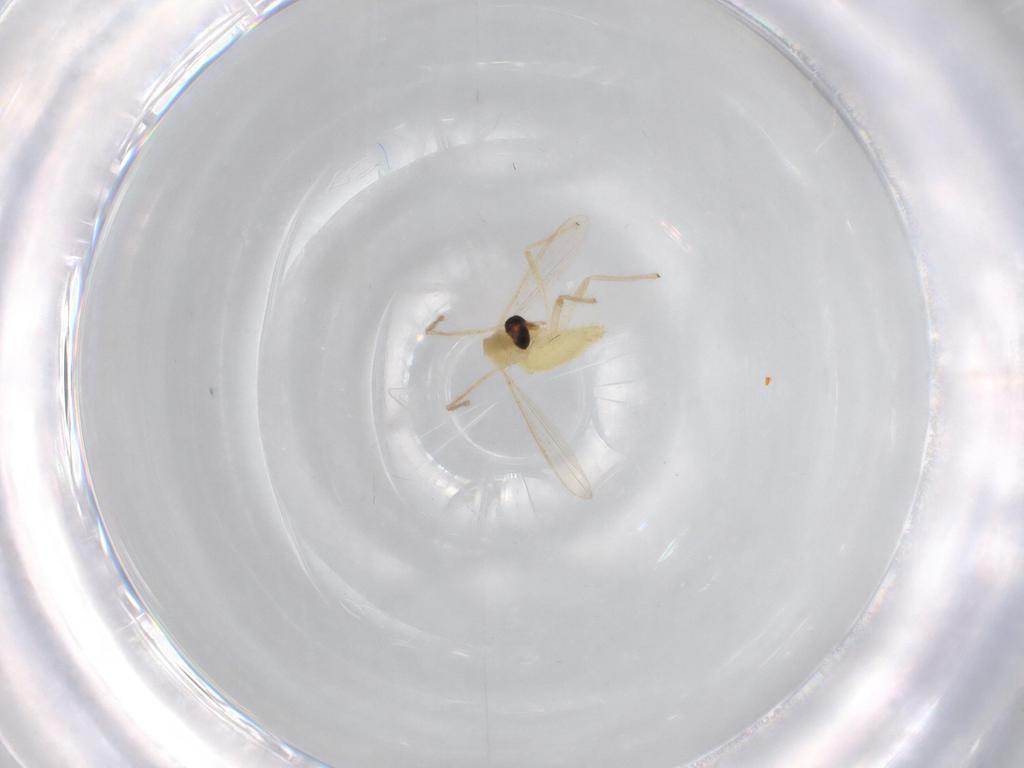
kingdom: Animalia
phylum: Arthropoda
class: Insecta
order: Diptera
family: Chironomidae
